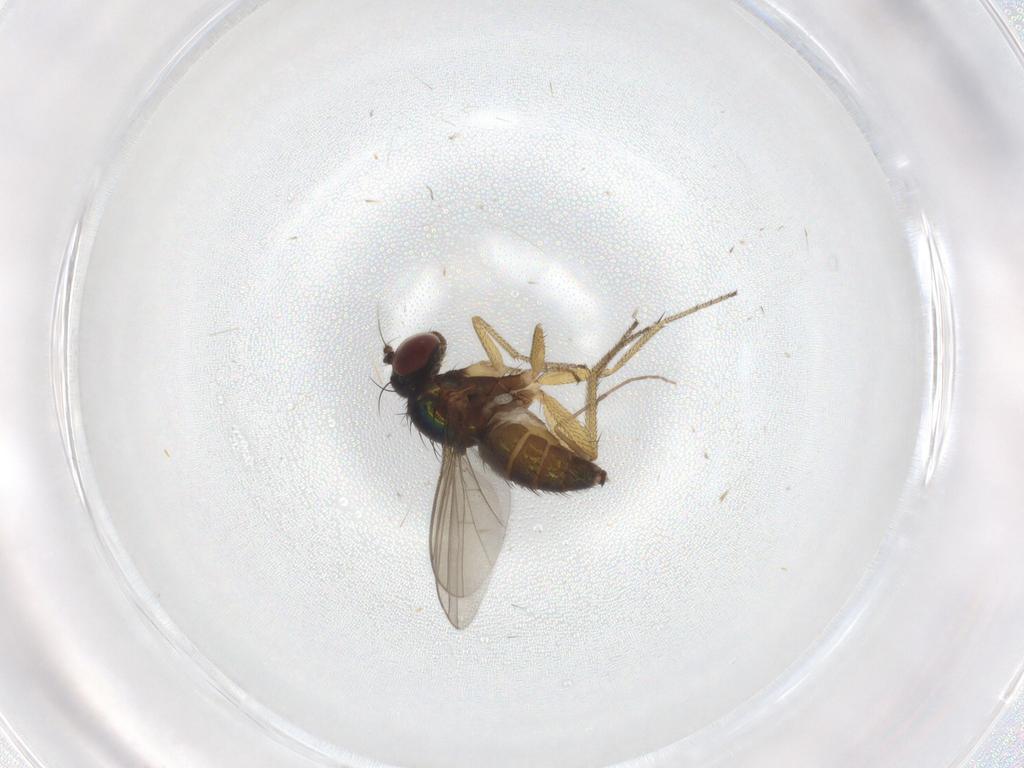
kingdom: Animalia
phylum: Arthropoda
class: Insecta
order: Diptera
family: Dolichopodidae
